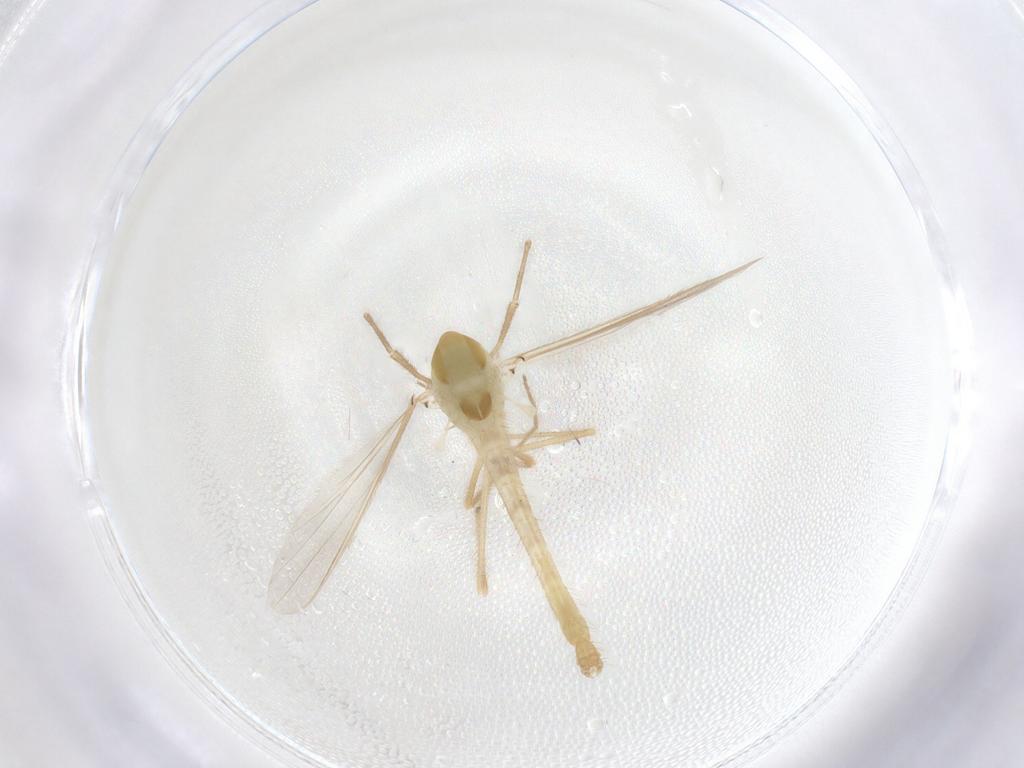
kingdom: Animalia
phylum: Arthropoda
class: Insecta
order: Diptera
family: Chironomidae
